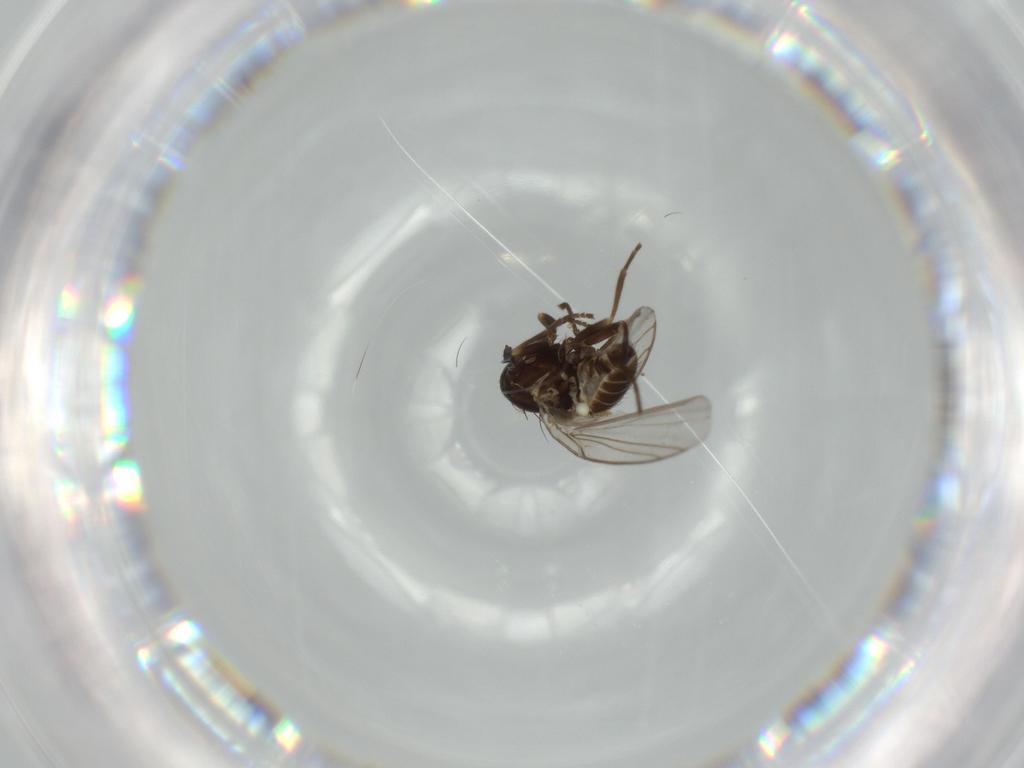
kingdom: Animalia
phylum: Arthropoda
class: Insecta
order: Diptera
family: Agromyzidae
